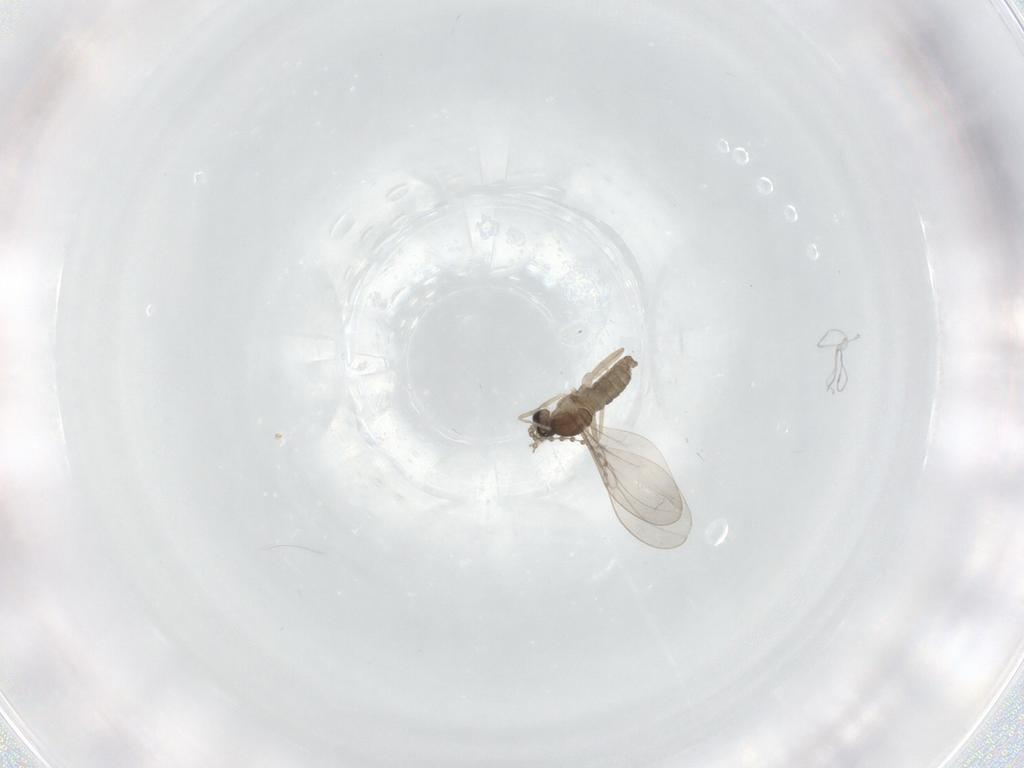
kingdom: Animalia
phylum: Arthropoda
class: Insecta
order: Diptera
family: Cecidomyiidae
